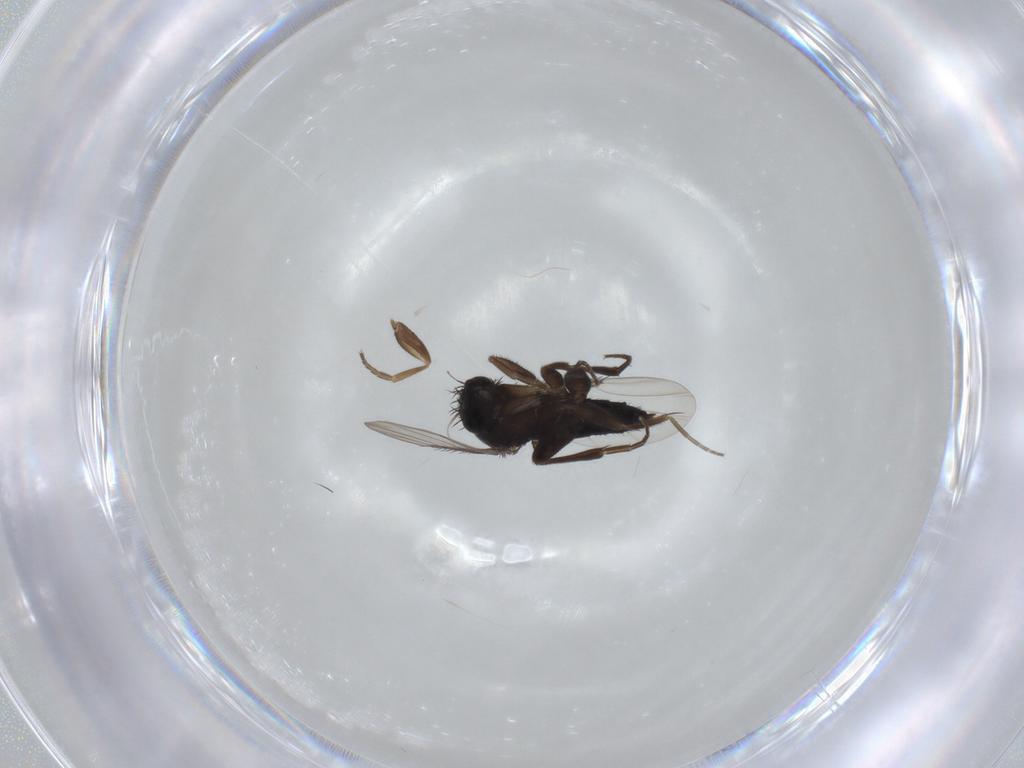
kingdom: Animalia
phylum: Arthropoda
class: Insecta
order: Diptera
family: Phoridae
